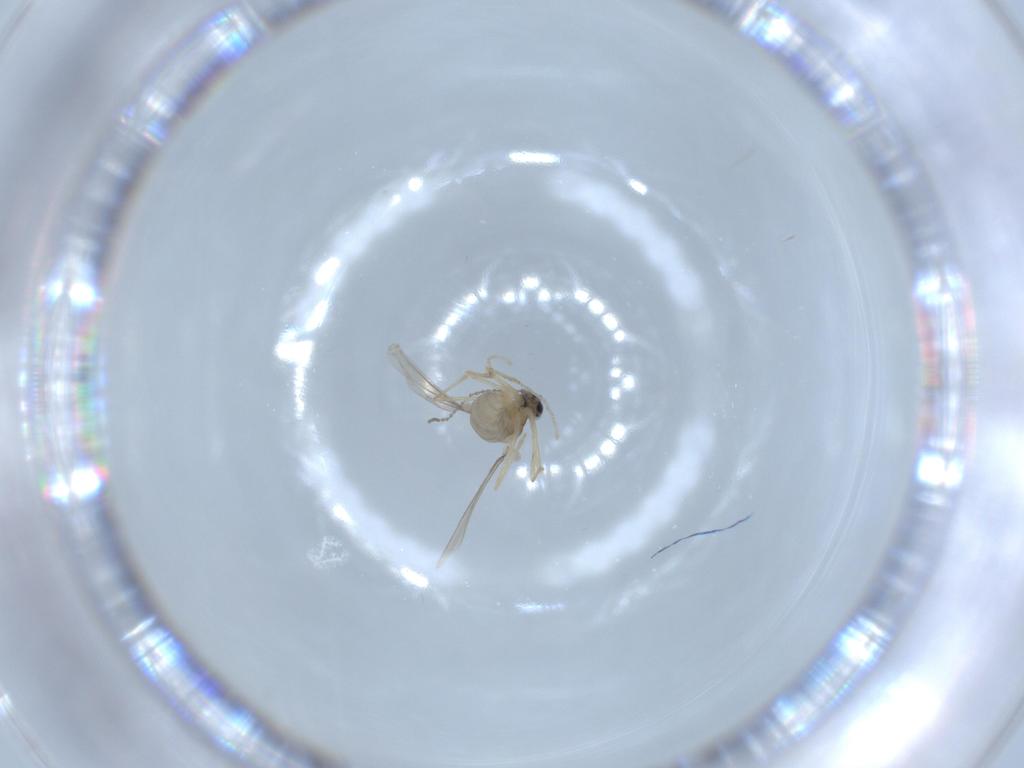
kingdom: Animalia
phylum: Arthropoda
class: Insecta
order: Diptera
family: Cecidomyiidae
